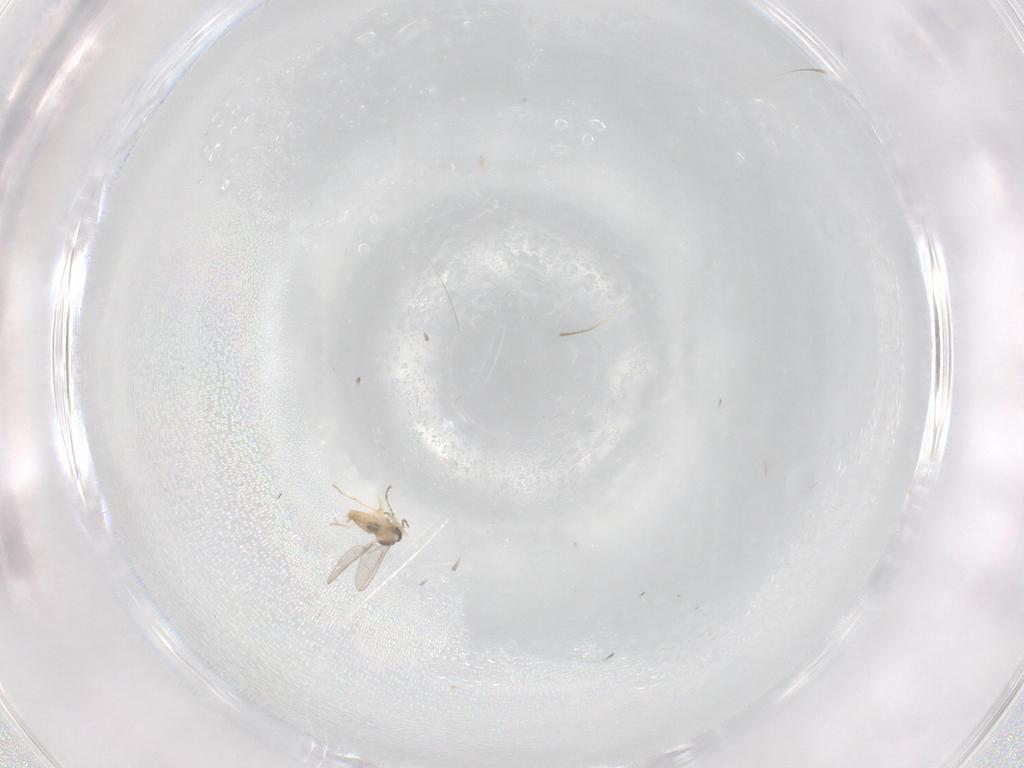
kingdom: Animalia
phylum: Arthropoda
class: Insecta
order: Diptera
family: Cecidomyiidae
